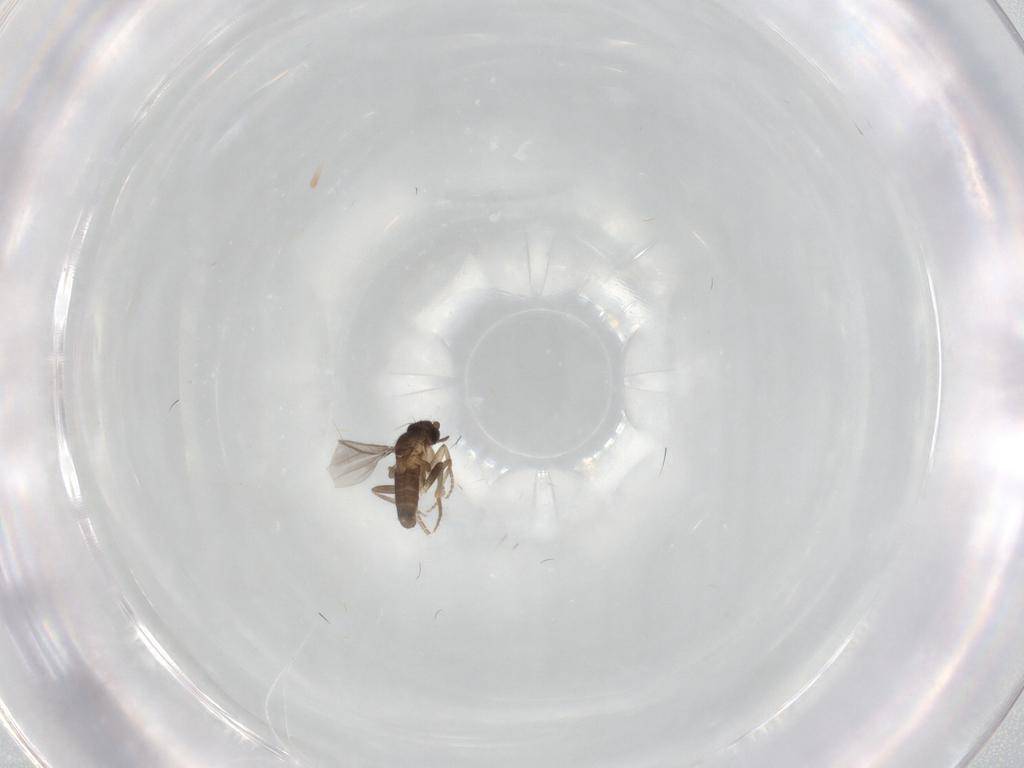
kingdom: Animalia
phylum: Arthropoda
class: Insecta
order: Diptera
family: Ephydridae
